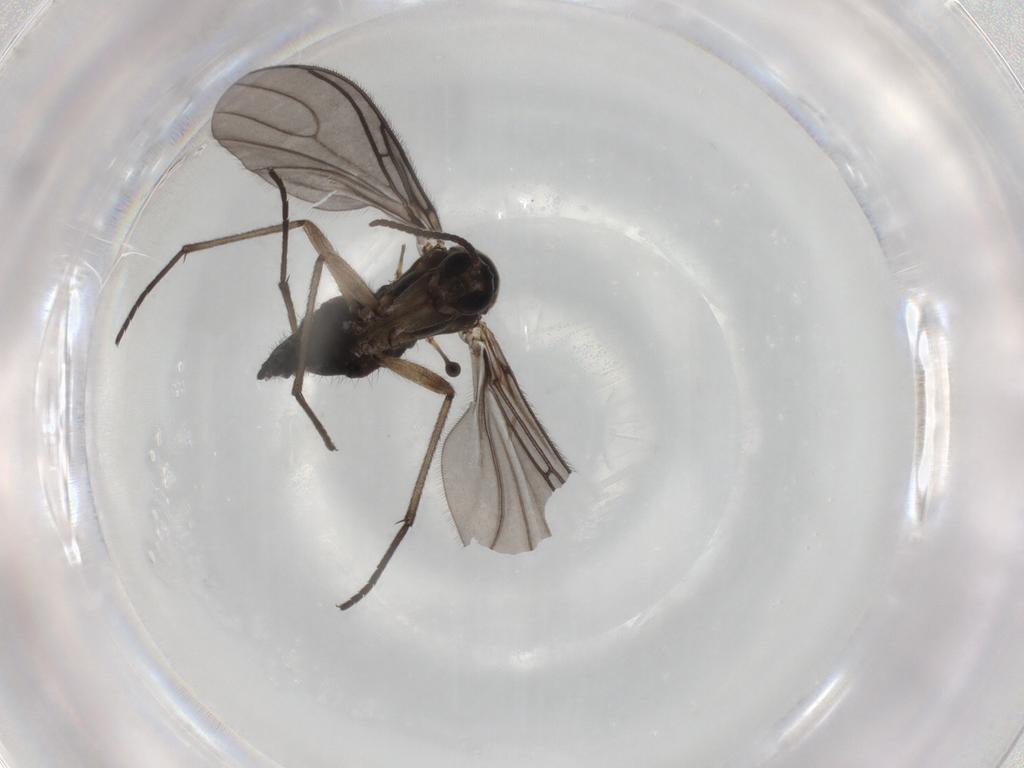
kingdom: Animalia
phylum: Arthropoda
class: Insecta
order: Diptera
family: Sciaridae
